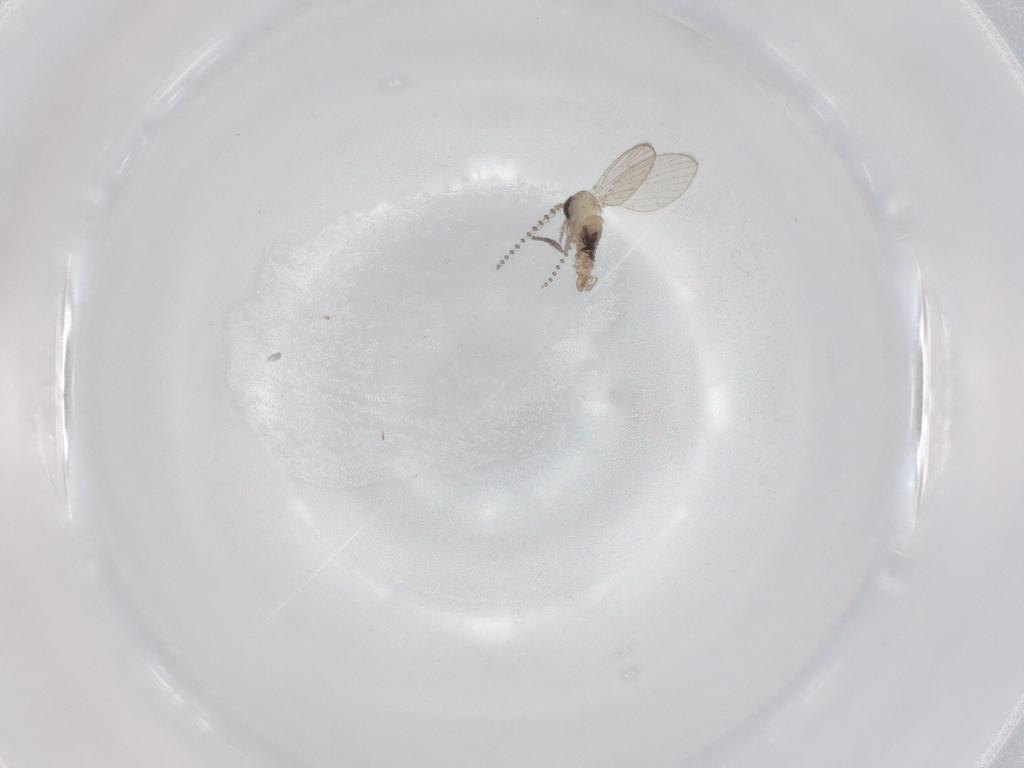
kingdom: Animalia
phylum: Arthropoda
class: Insecta
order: Diptera
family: Psychodidae
